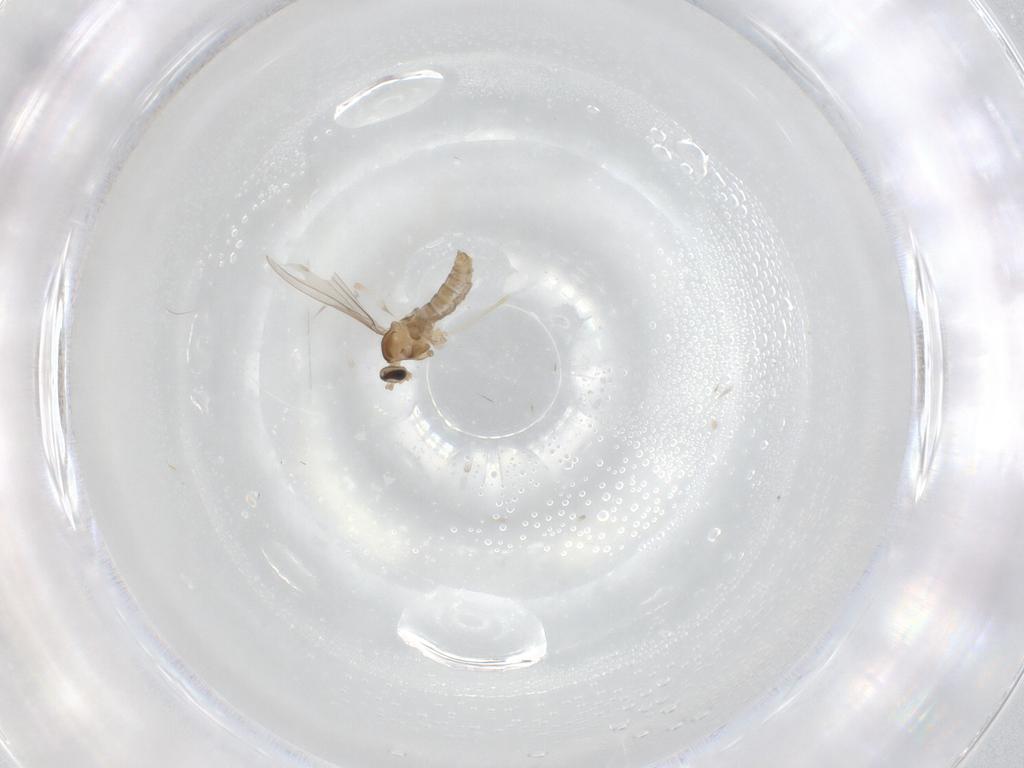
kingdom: Animalia
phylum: Arthropoda
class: Insecta
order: Diptera
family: Cecidomyiidae
